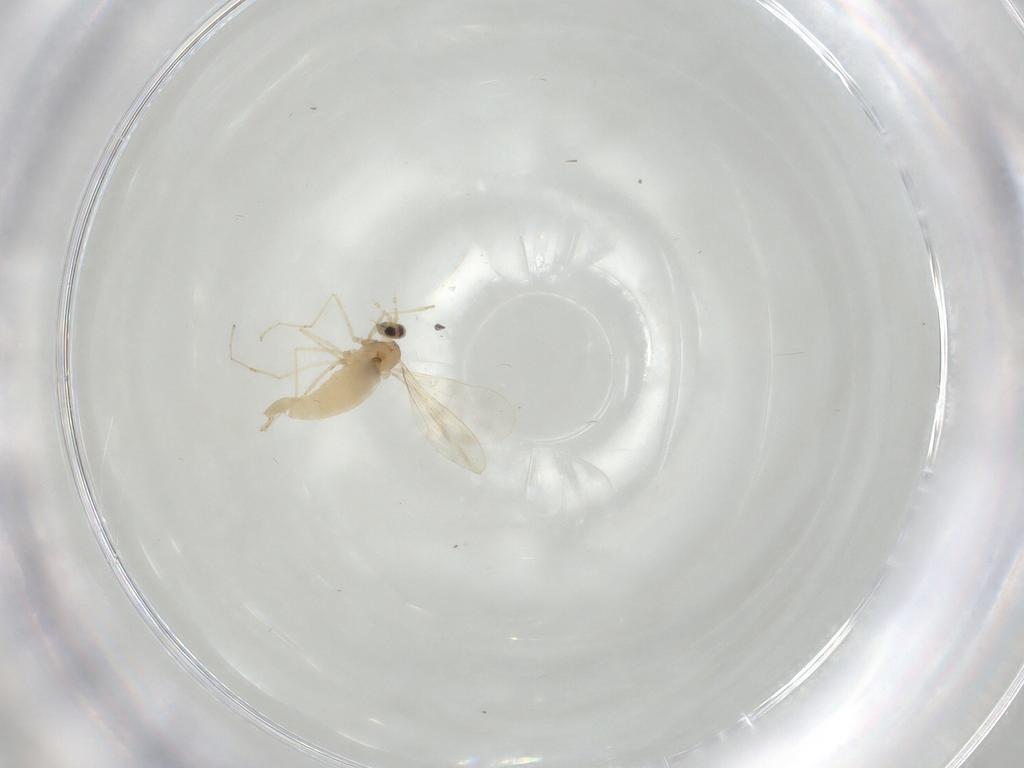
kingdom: Animalia
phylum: Arthropoda
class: Insecta
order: Diptera
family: Cecidomyiidae
